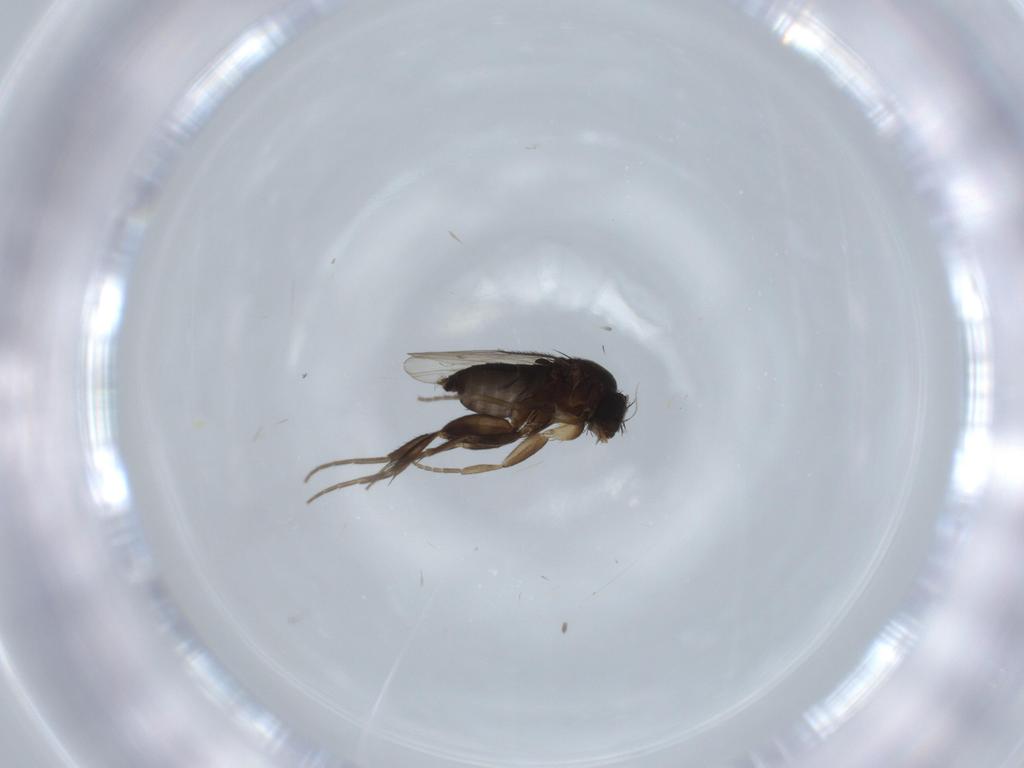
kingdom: Animalia
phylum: Arthropoda
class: Insecta
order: Diptera
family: Phoridae
